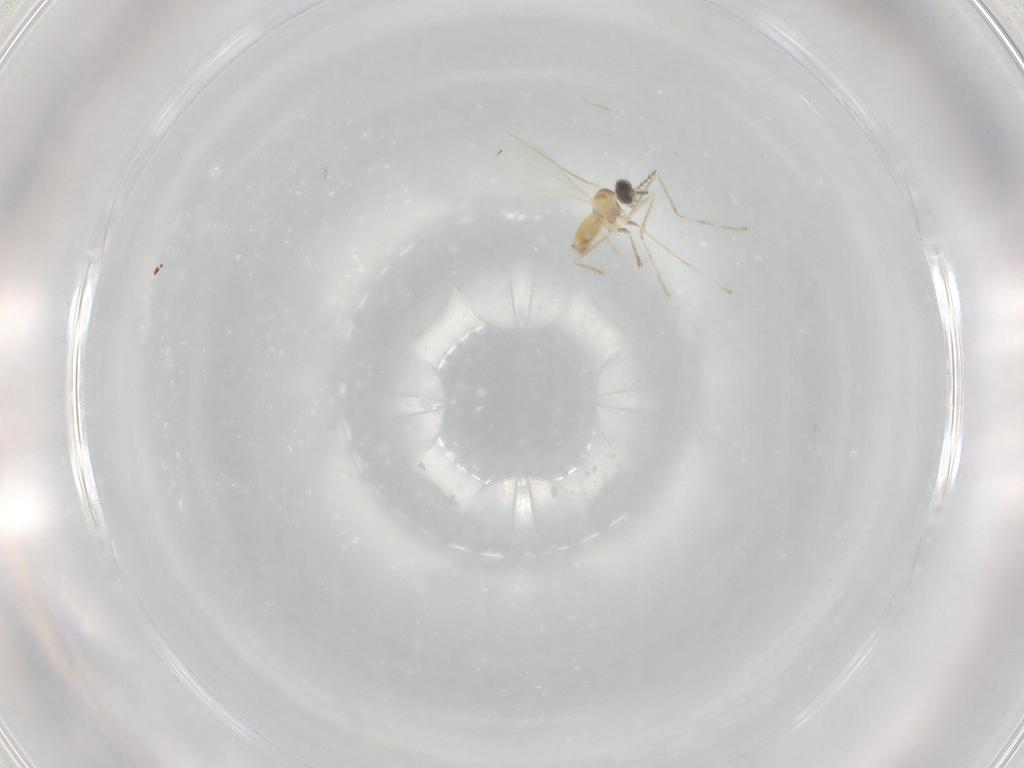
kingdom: Animalia
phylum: Arthropoda
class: Insecta
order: Diptera
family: Cecidomyiidae
